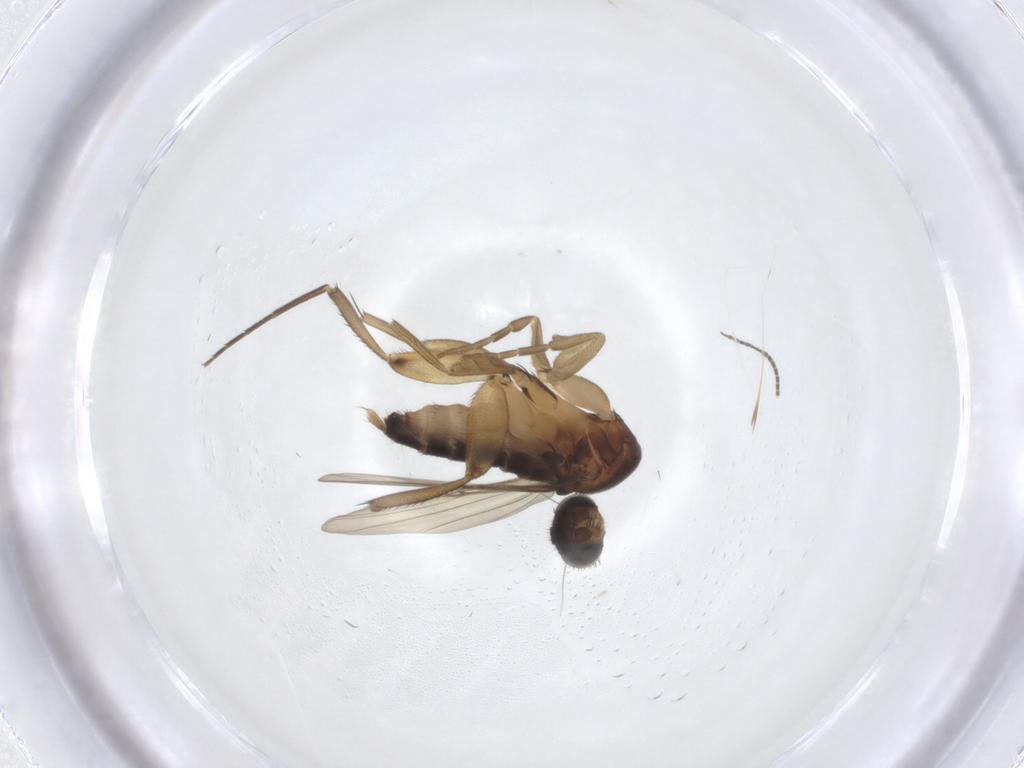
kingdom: Animalia
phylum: Arthropoda
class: Insecta
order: Diptera
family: Phoridae
